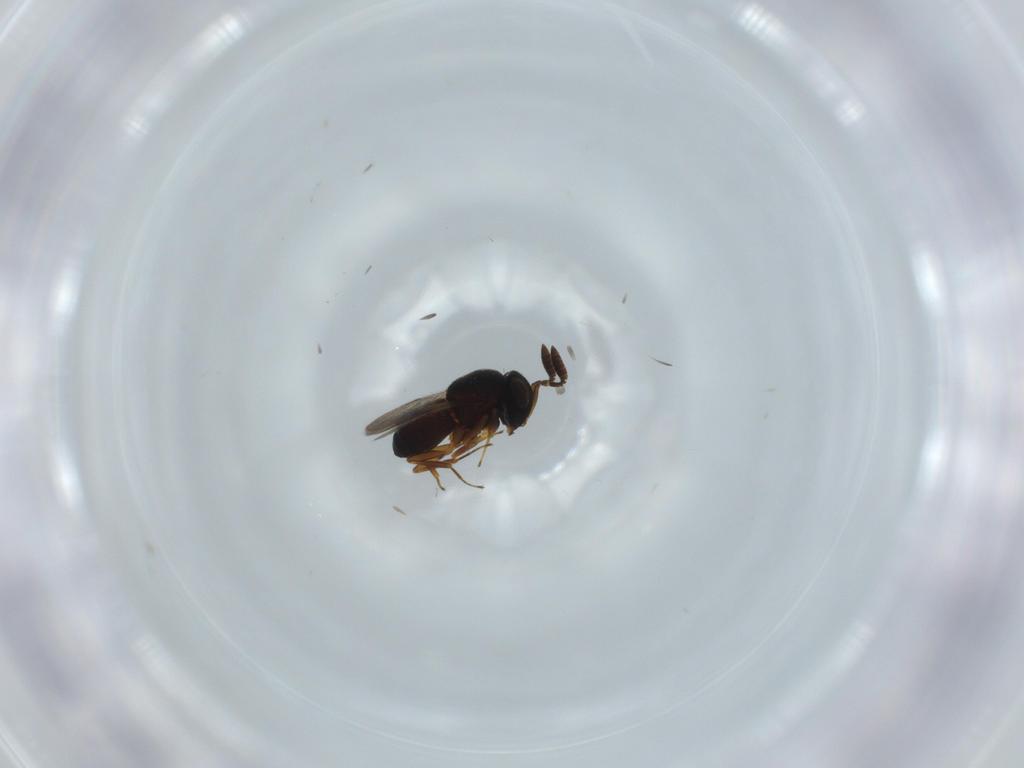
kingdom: Animalia
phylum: Arthropoda
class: Insecta
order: Coleoptera
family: Curculionidae
